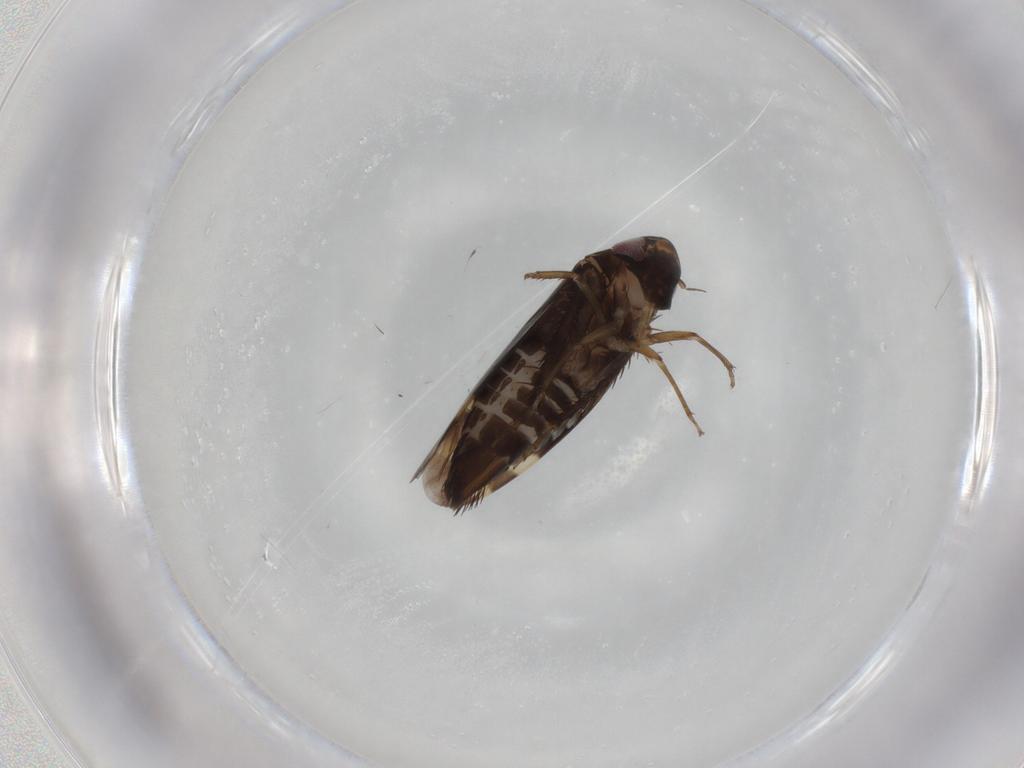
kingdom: Animalia
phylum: Arthropoda
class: Insecta
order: Hemiptera
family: Cicadellidae
